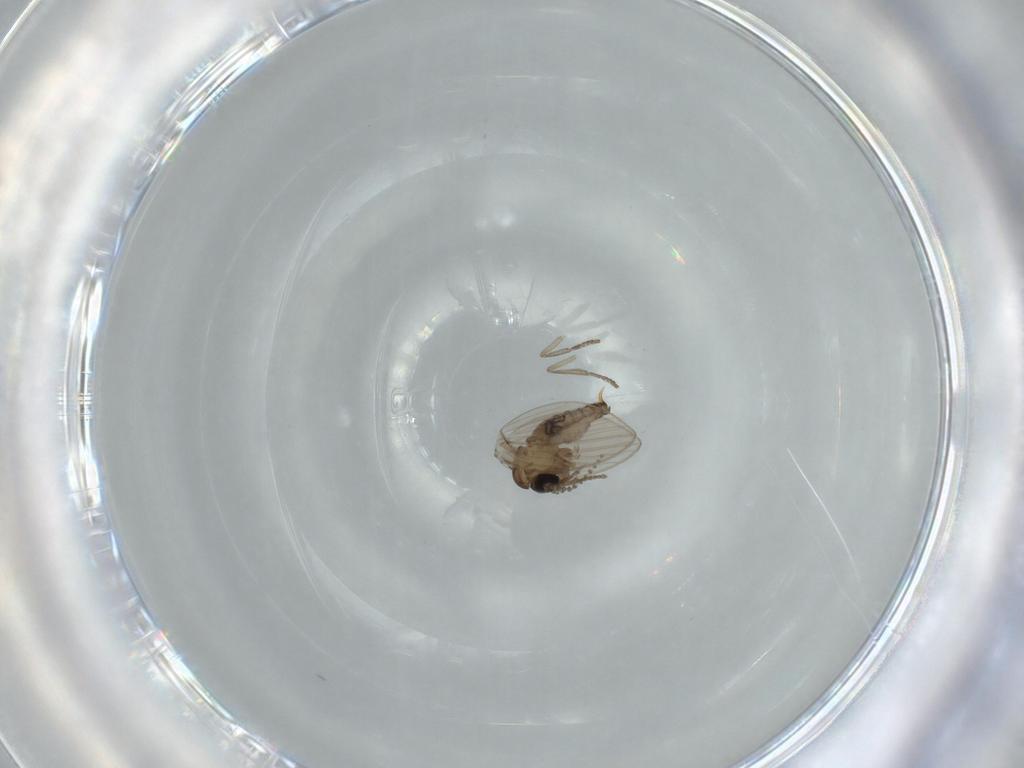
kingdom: Animalia
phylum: Arthropoda
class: Insecta
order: Diptera
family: Psychodidae
